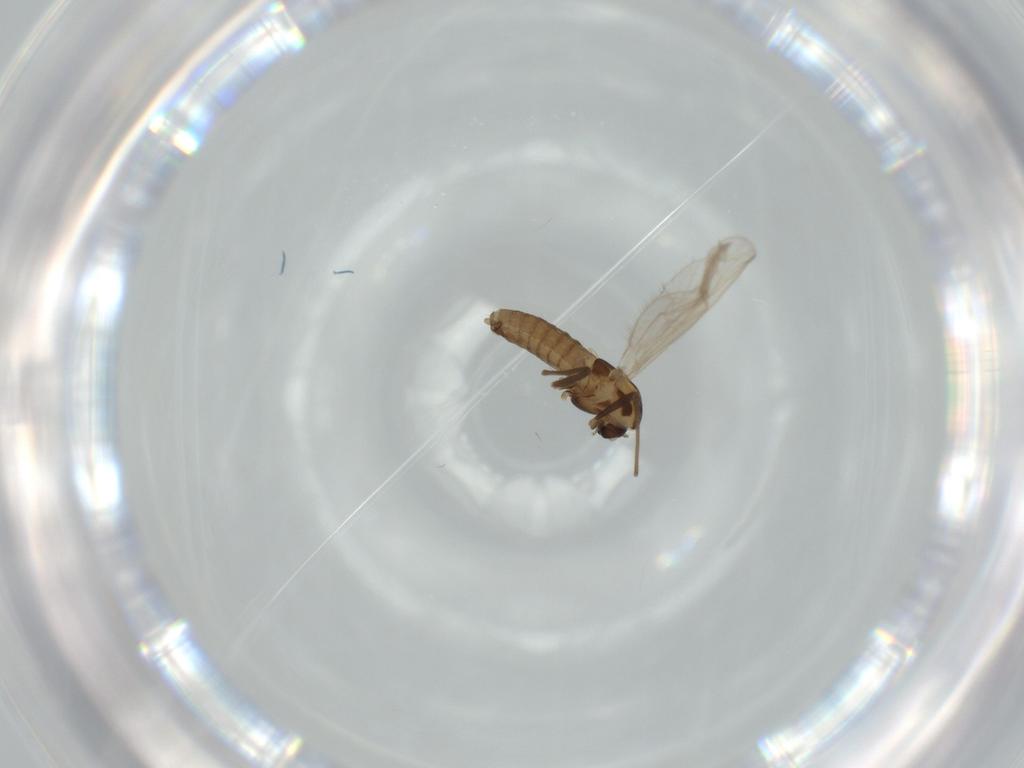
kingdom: Animalia
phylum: Arthropoda
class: Insecta
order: Diptera
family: Chironomidae
